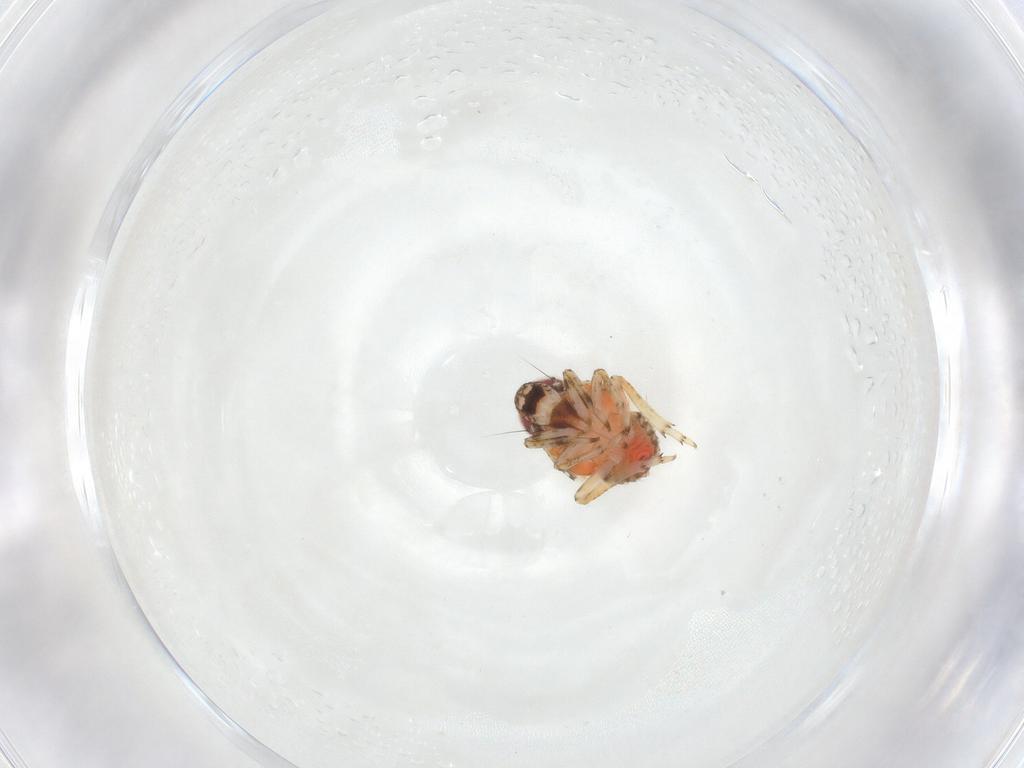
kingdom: Animalia
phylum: Arthropoda
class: Insecta
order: Hemiptera
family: Issidae
